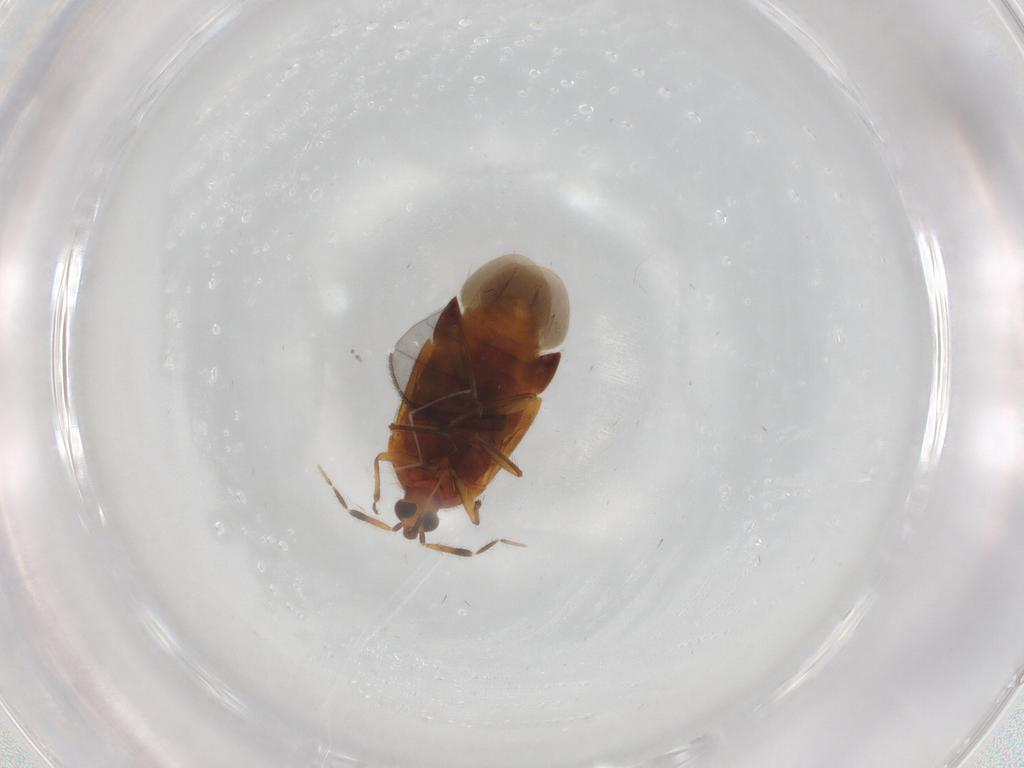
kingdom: Animalia
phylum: Arthropoda
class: Insecta
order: Hemiptera
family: Anthocoridae
